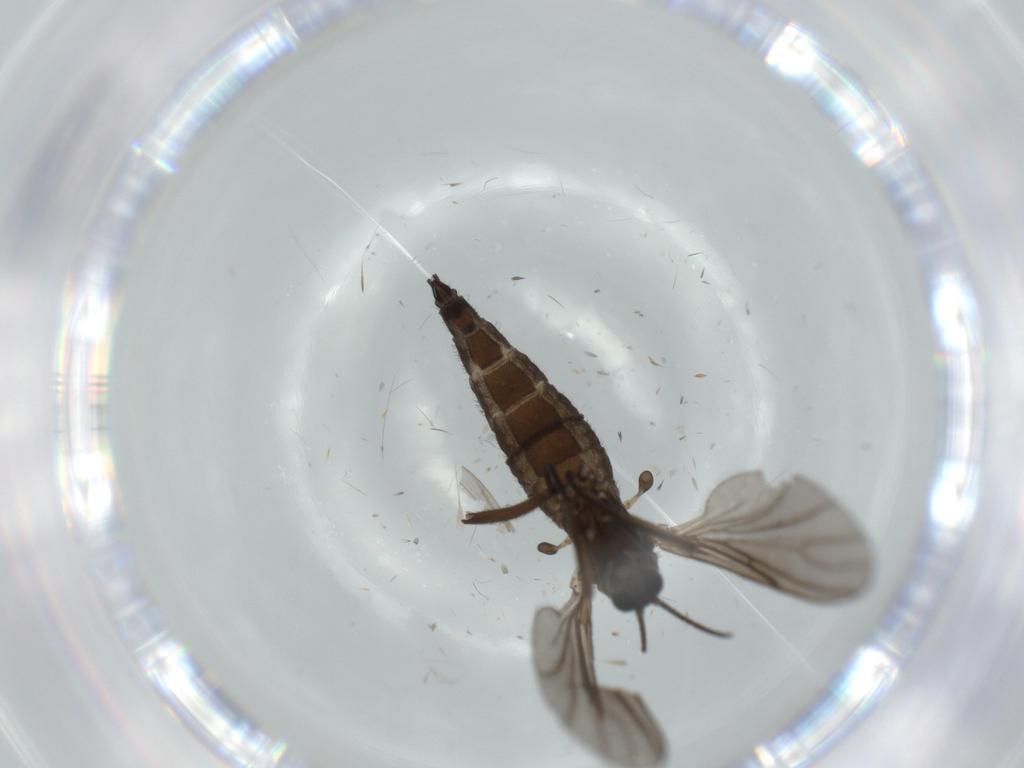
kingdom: Animalia
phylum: Arthropoda
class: Insecta
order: Diptera
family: Sciaridae
